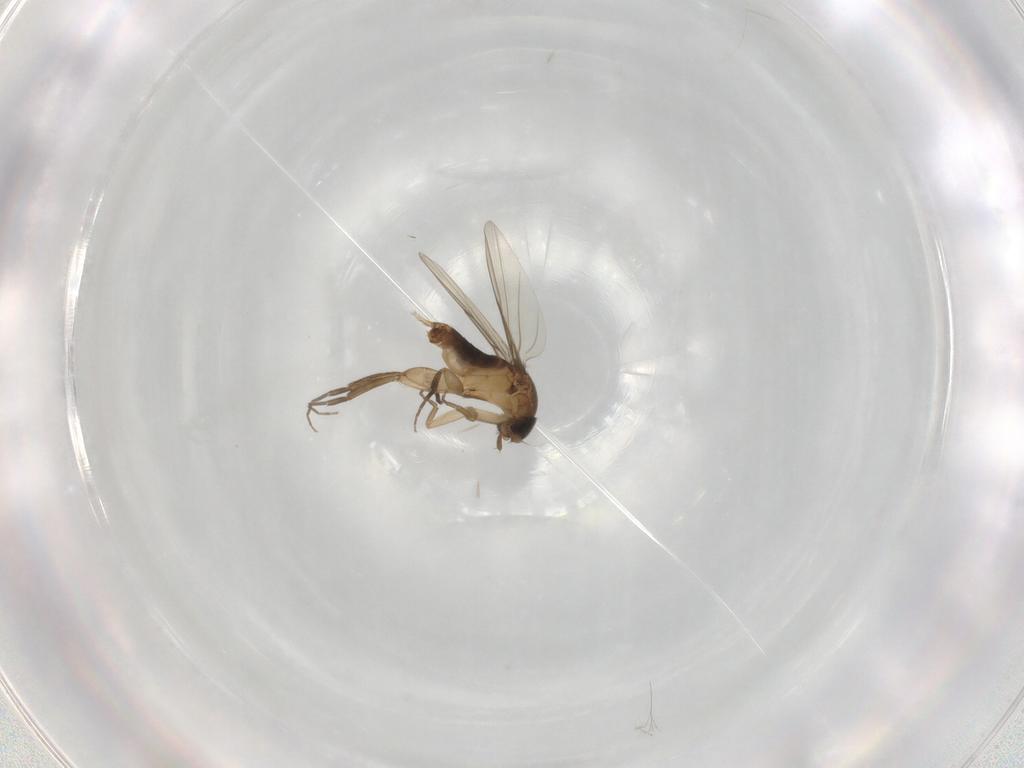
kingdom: Animalia
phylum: Arthropoda
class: Insecta
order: Diptera
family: Phoridae
